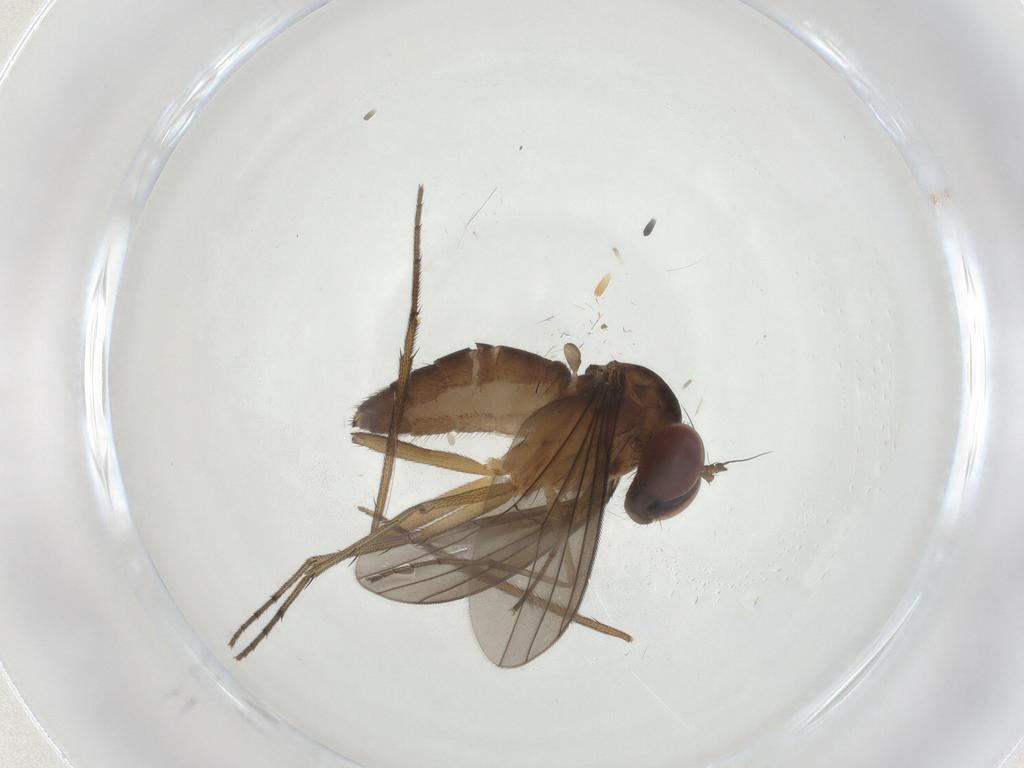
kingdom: Animalia
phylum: Arthropoda
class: Insecta
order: Diptera
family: Dolichopodidae
